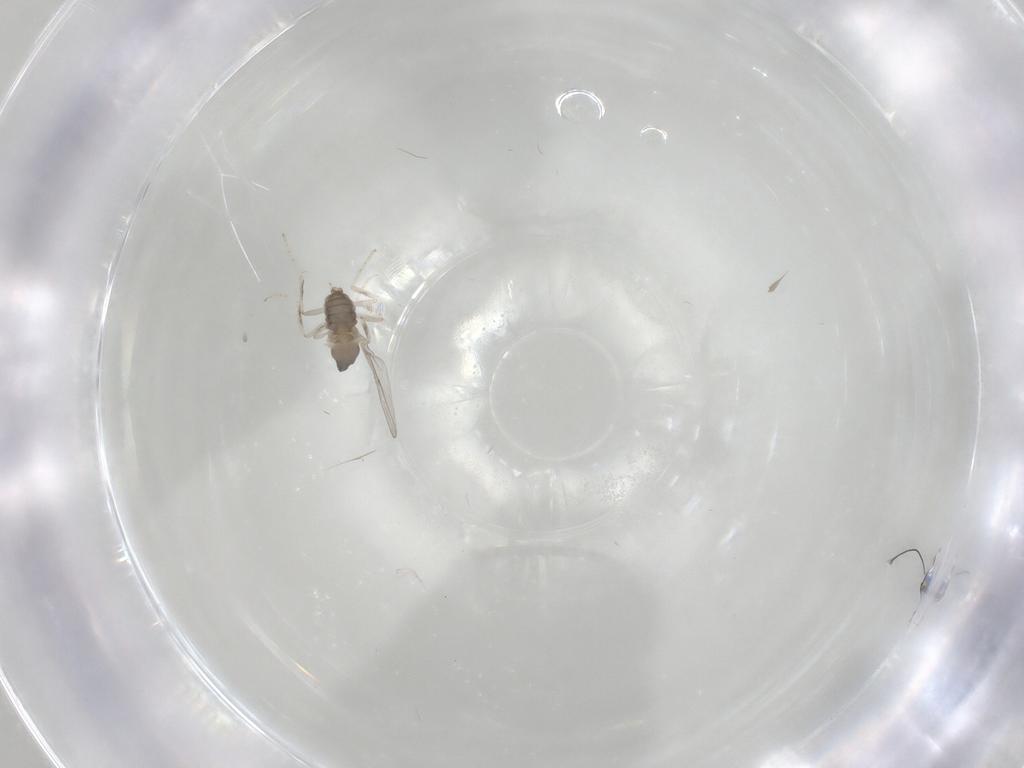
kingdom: Animalia
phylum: Arthropoda
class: Insecta
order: Diptera
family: Cecidomyiidae
